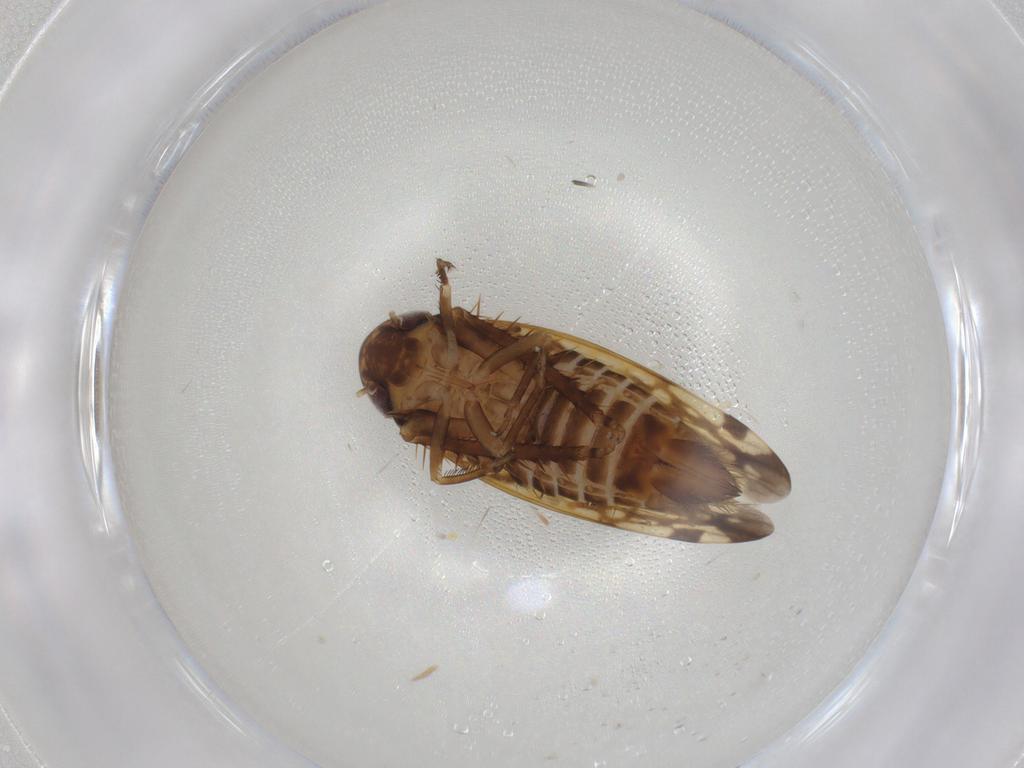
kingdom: Animalia
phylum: Arthropoda
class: Insecta
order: Hemiptera
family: Cicadellidae
